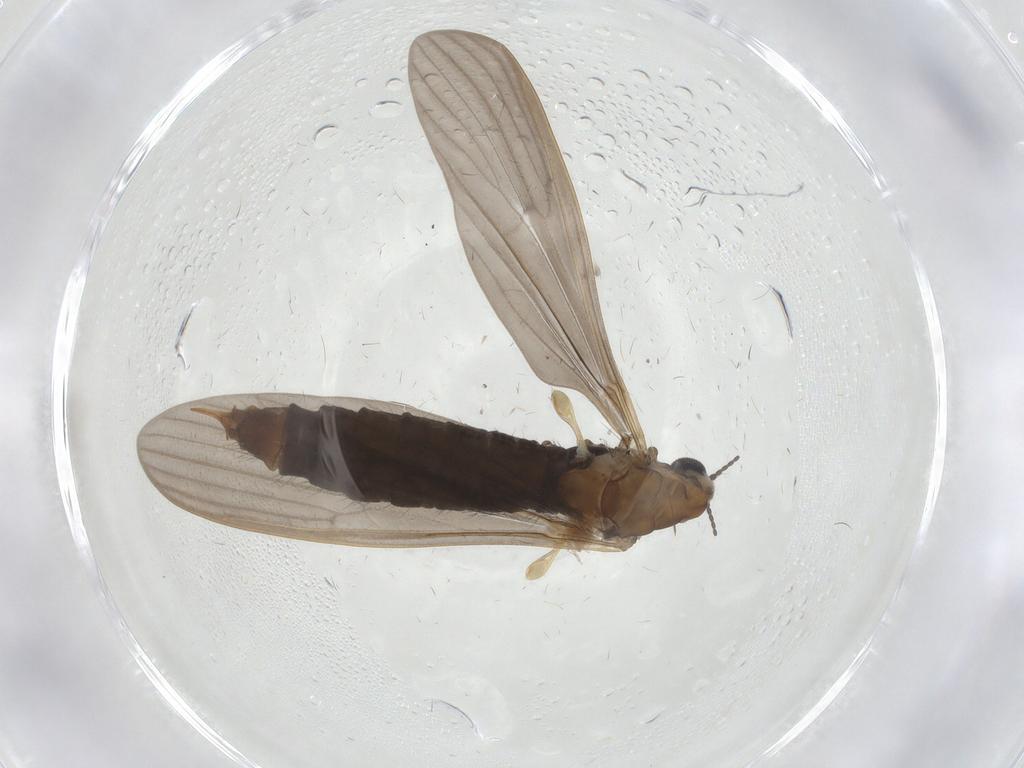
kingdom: Animalia
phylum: Arthropoda
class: Insecta
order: Diptera
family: Limoniidae
